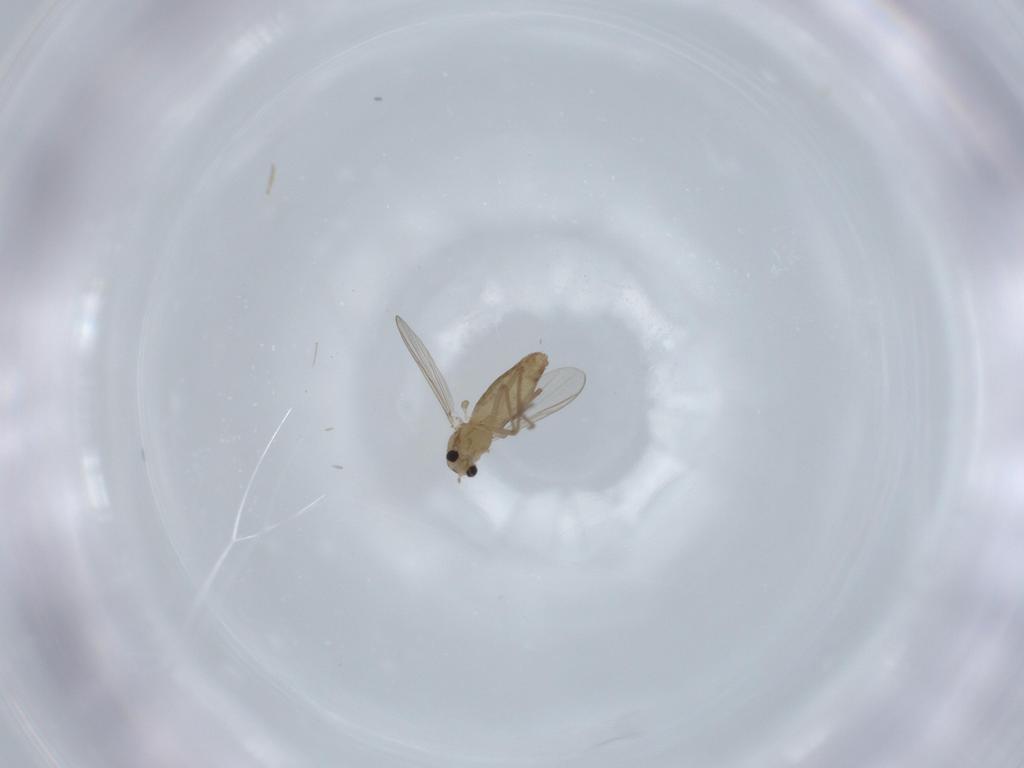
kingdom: Animalia
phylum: Arthropoda
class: Insecta
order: Diptera
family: Chironomidae
